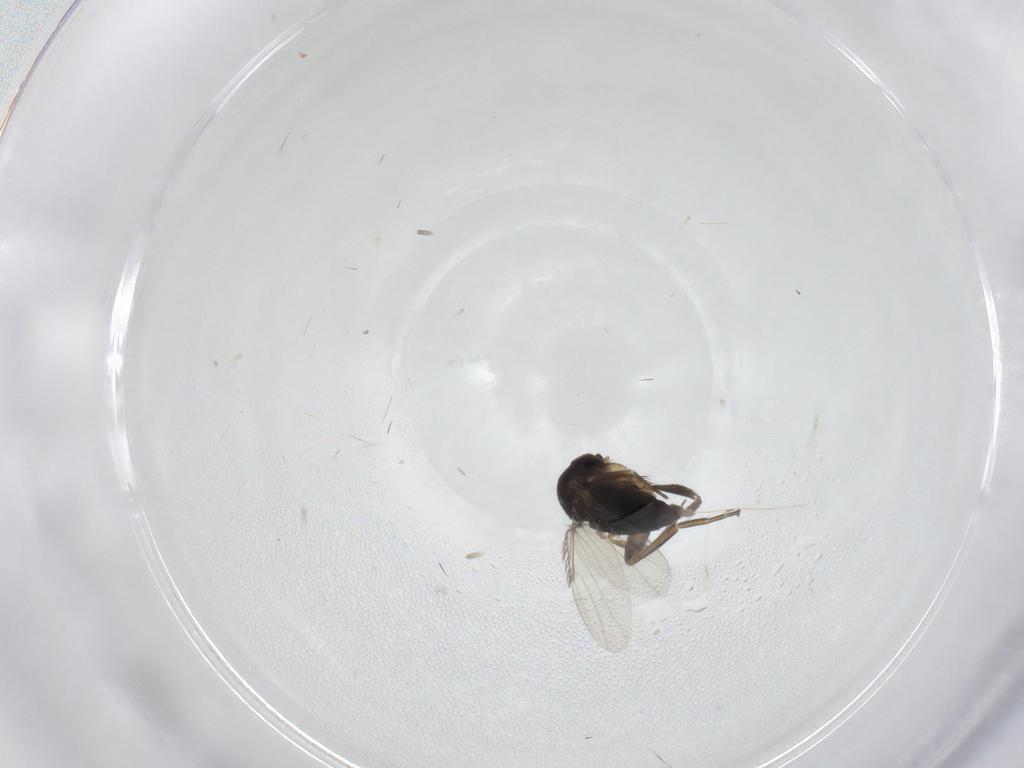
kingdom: Animalia
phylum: Arthropoda
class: Insecta
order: Diptera
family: Phoridae
